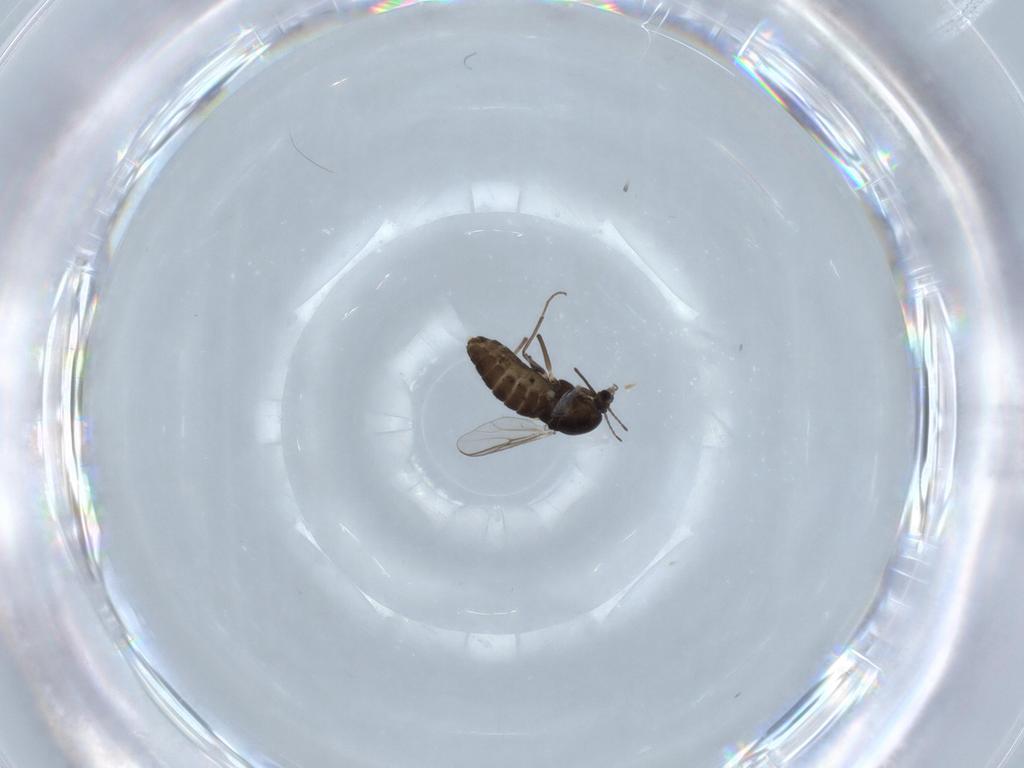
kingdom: Animalia
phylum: Arthropoda
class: Insecta
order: Diptera
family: Chironomidae
